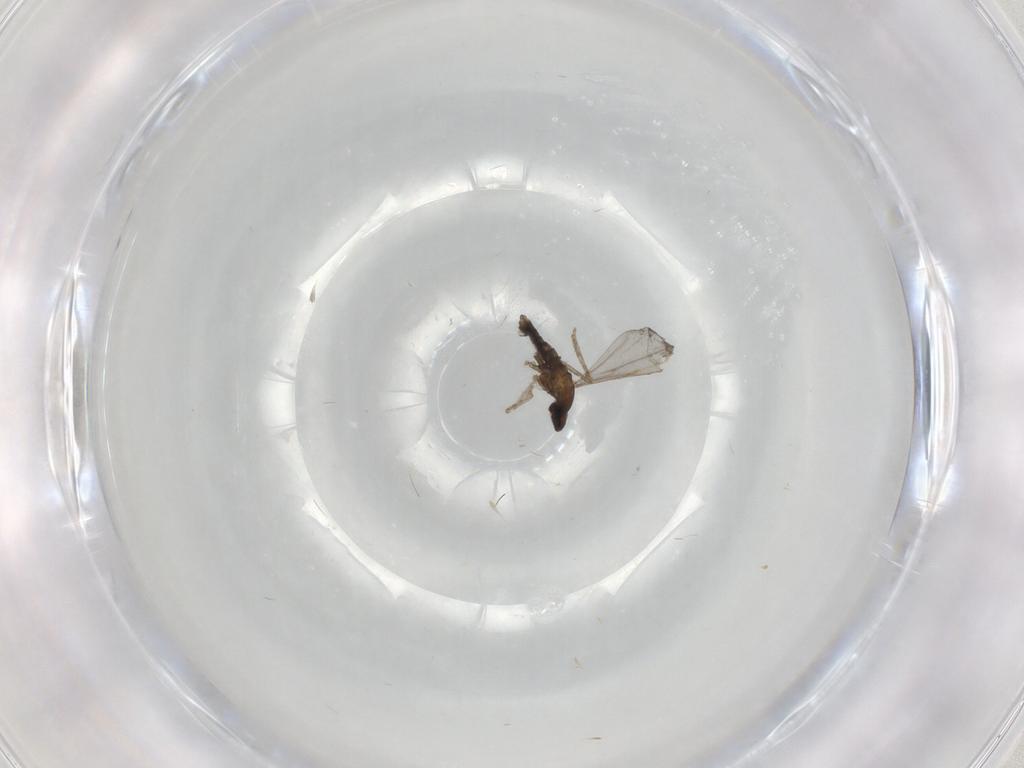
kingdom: Animalia
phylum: Arthropoda
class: Insecta
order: Diptera
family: Cecidomyiidae
